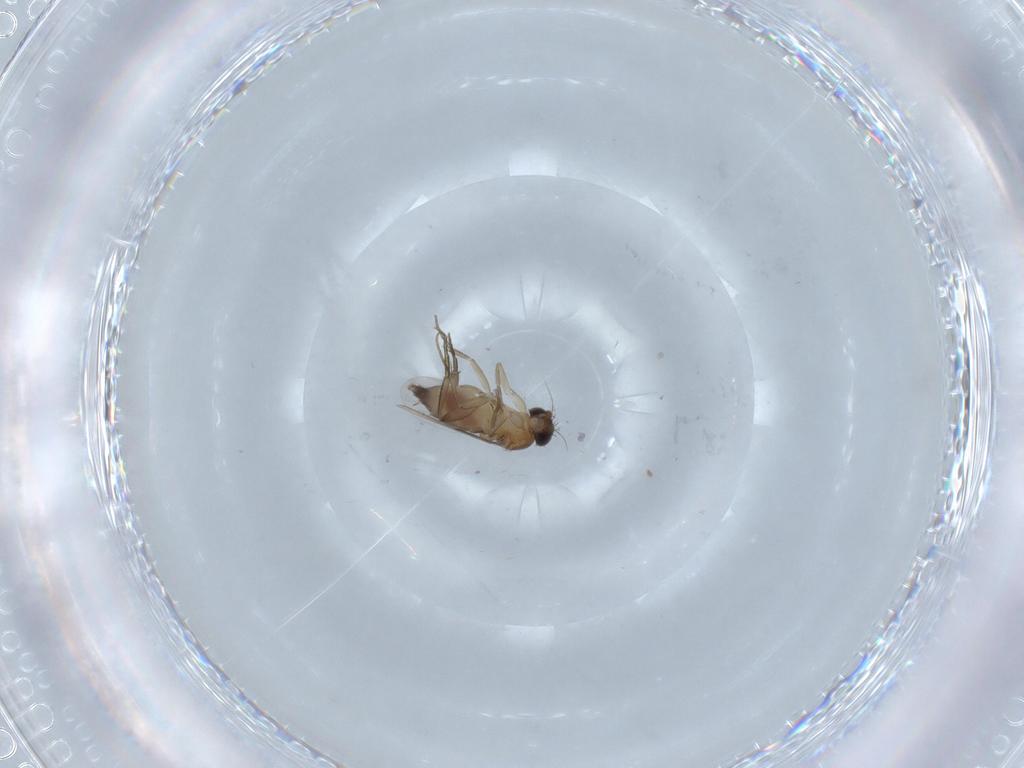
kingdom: Animalia
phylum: Arthropoda
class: Insecta
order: Diptera
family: Phoridae
